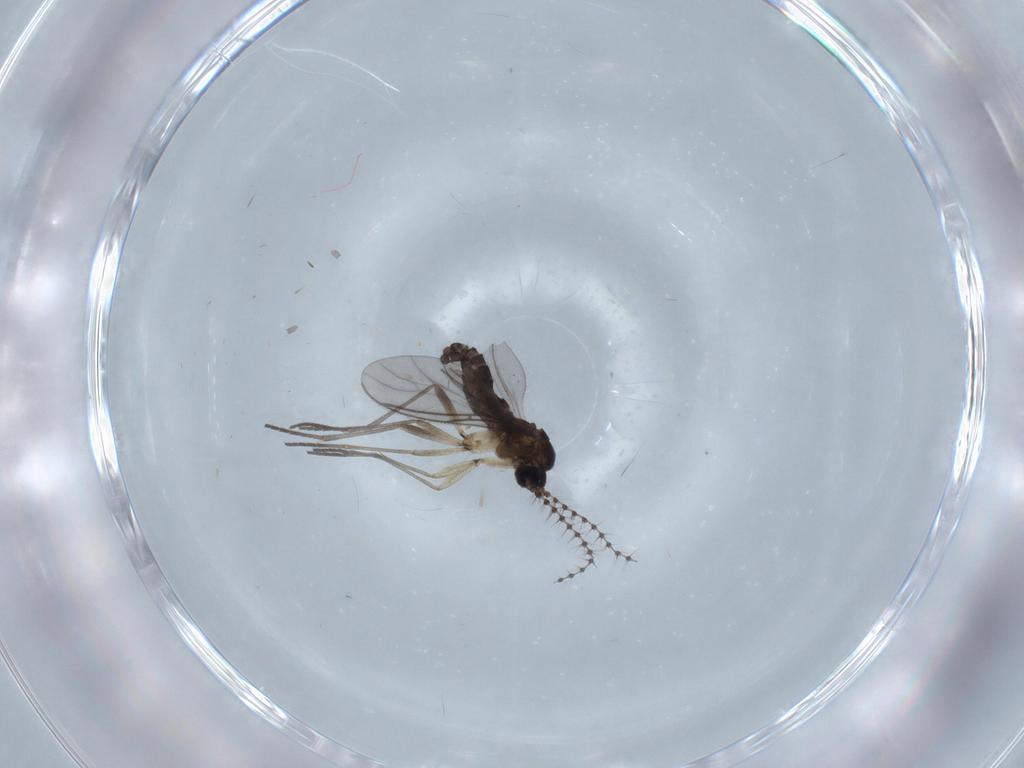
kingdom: Animalia
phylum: Arthropoda
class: Insecta
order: Diptera
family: Sciaridae
